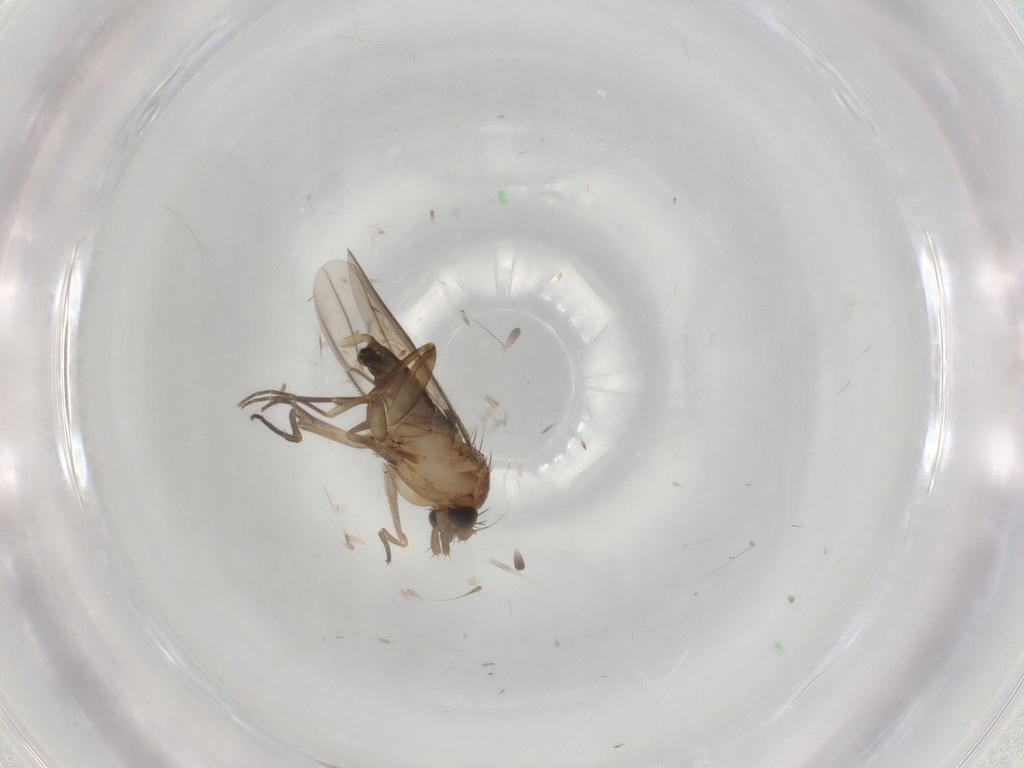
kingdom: Animalia
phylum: Arthropoda
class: Insecta
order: Diptera
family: Phoridae
